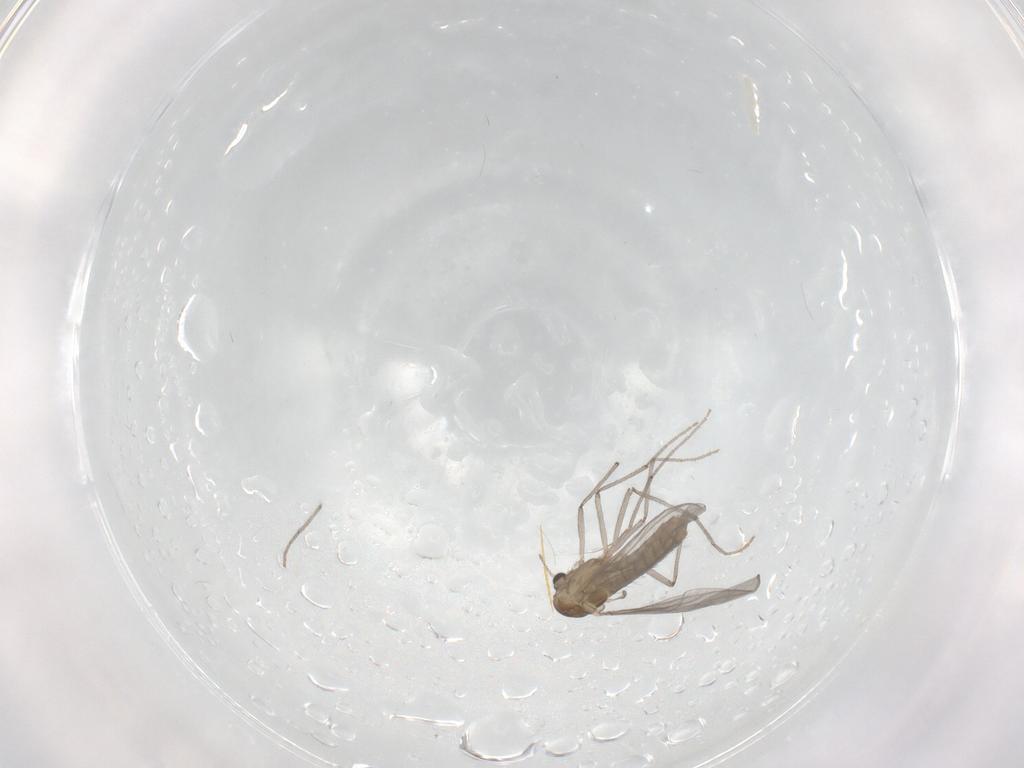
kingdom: Animalia
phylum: Arthropoda
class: Insecta
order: Diptera
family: Chironomidae
